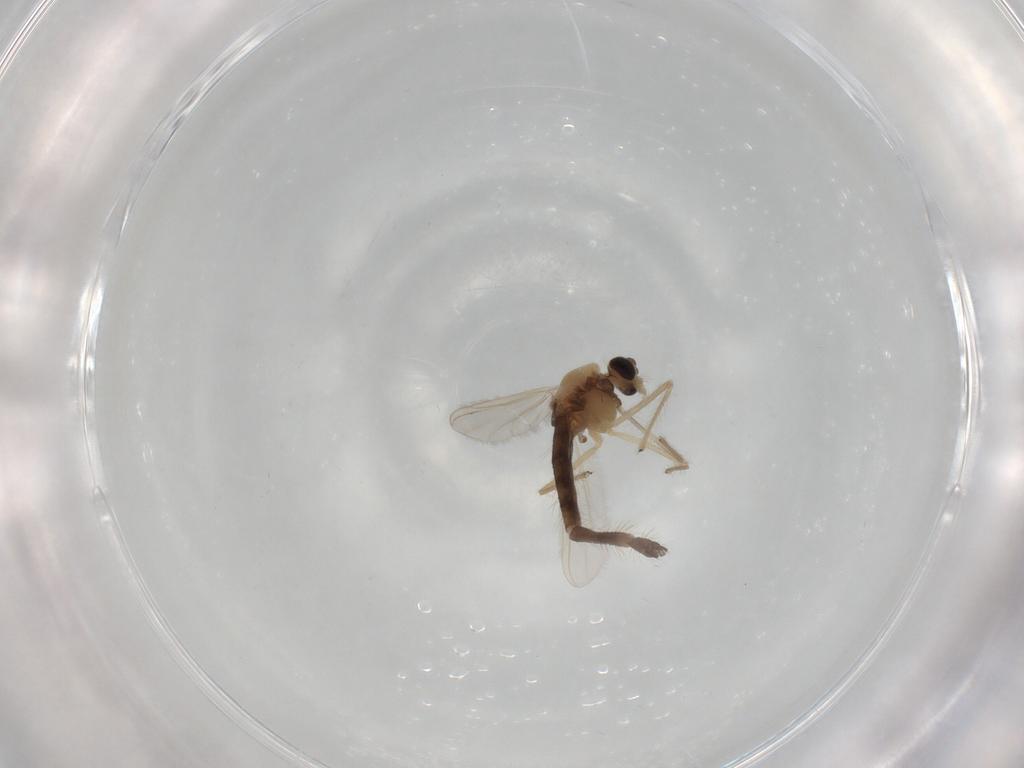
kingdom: Animalia
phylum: Arthropoda
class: Insecta
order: Diptera
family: Chironomidae
